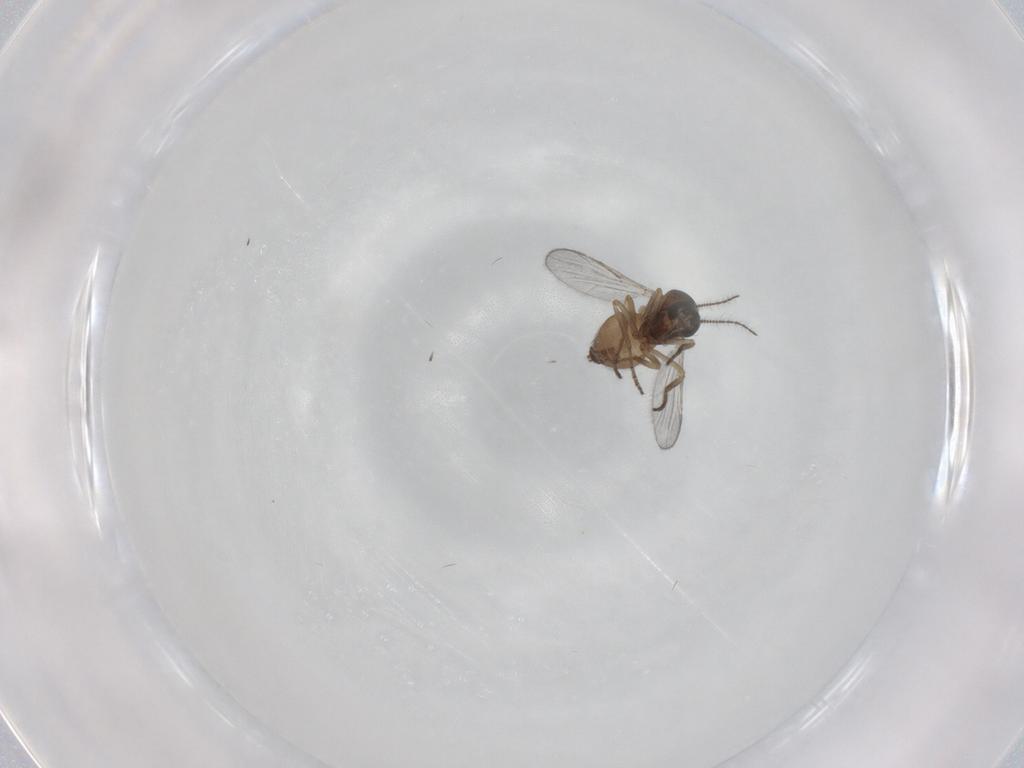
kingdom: Animalia
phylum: Arthropoda
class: Insecta
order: Diptera
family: Ceratopogonidae
